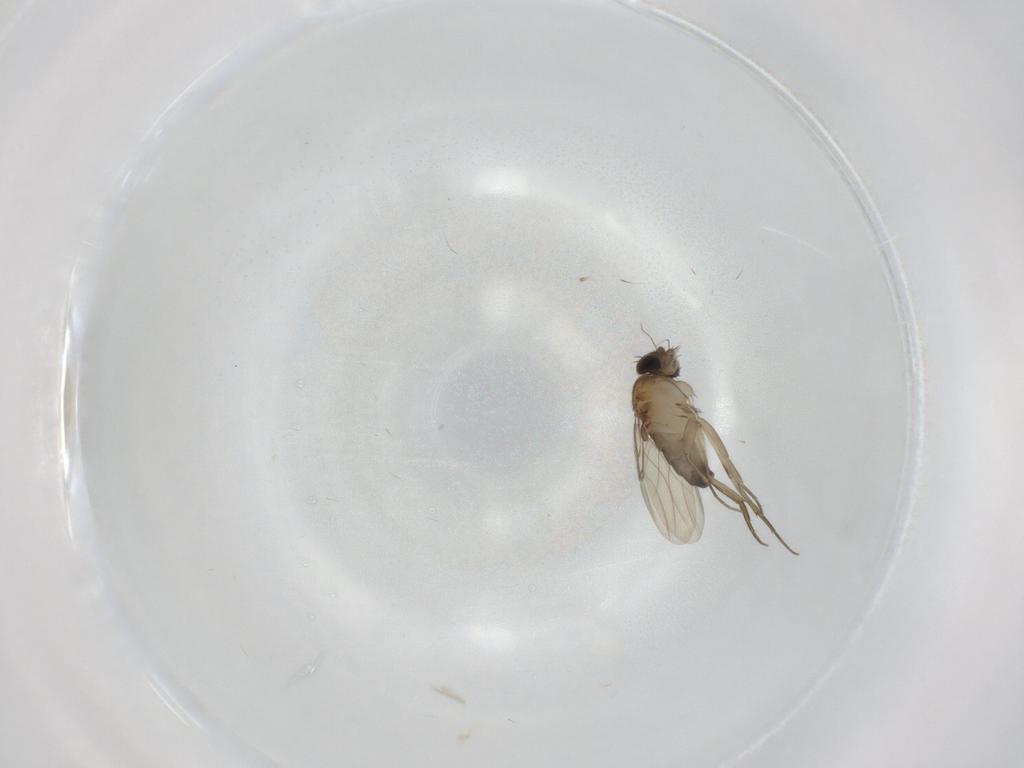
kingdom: Animalia
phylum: Arthropoda
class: Insecta
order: Diptera
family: Phoridae
